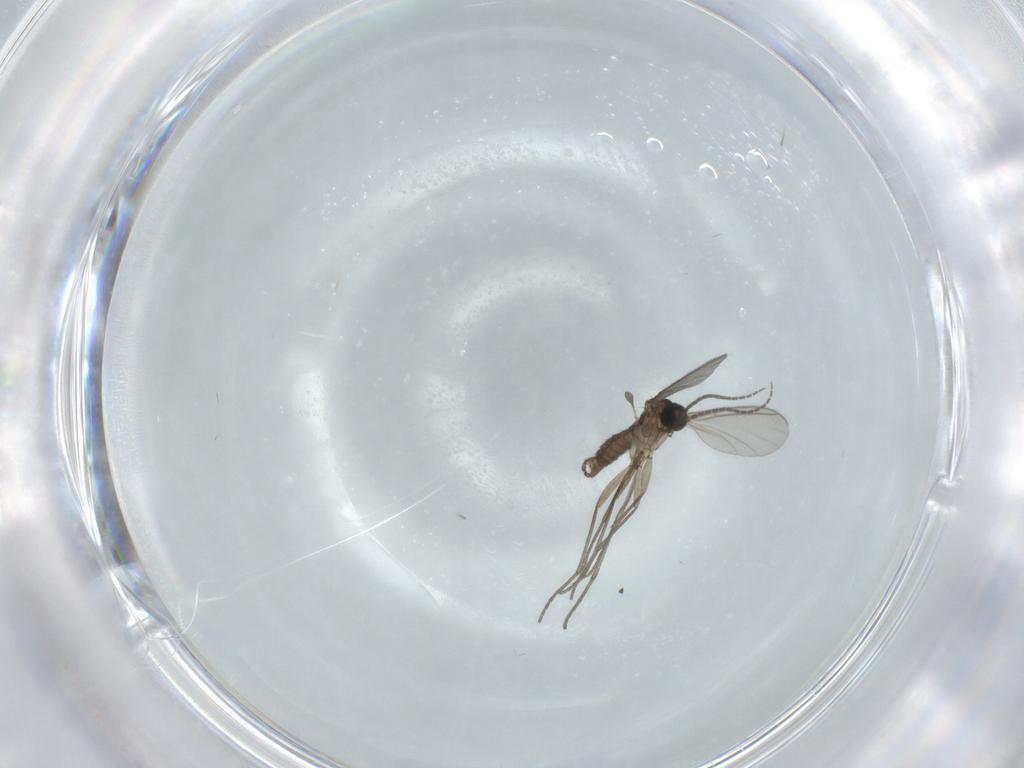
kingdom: Animalia
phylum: Arthropoda
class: Insecta
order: Diptera
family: Sciaridae
